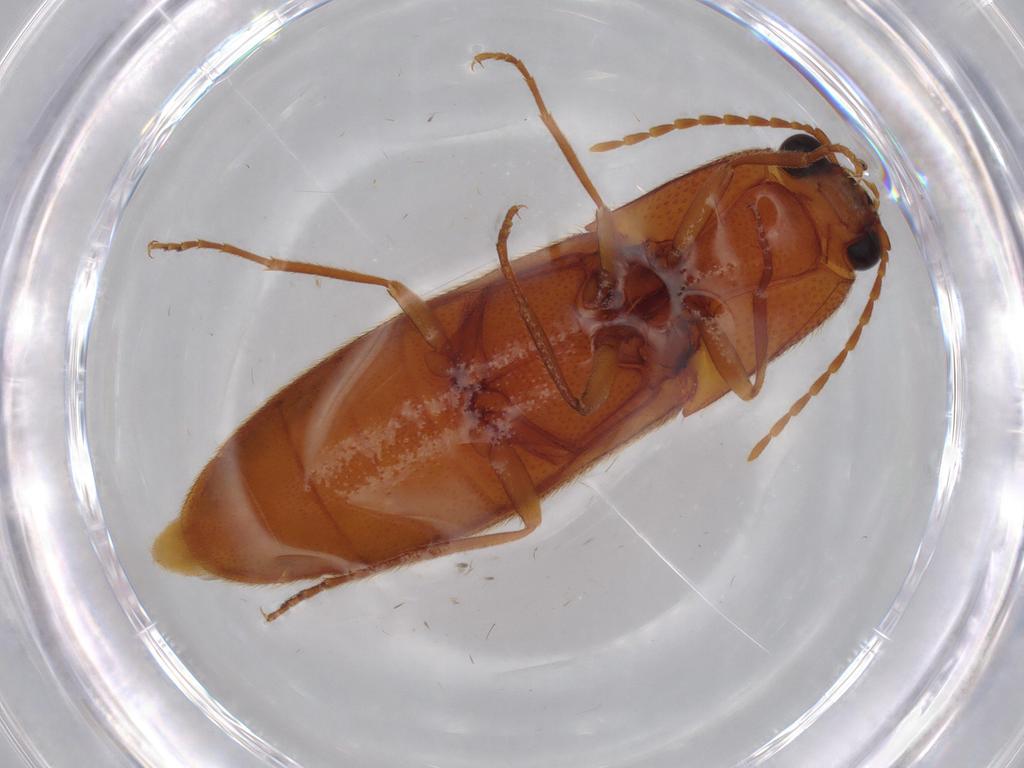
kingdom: Animalia
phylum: Arthropoda
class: Insecta
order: Coleoptera
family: Elateridae
